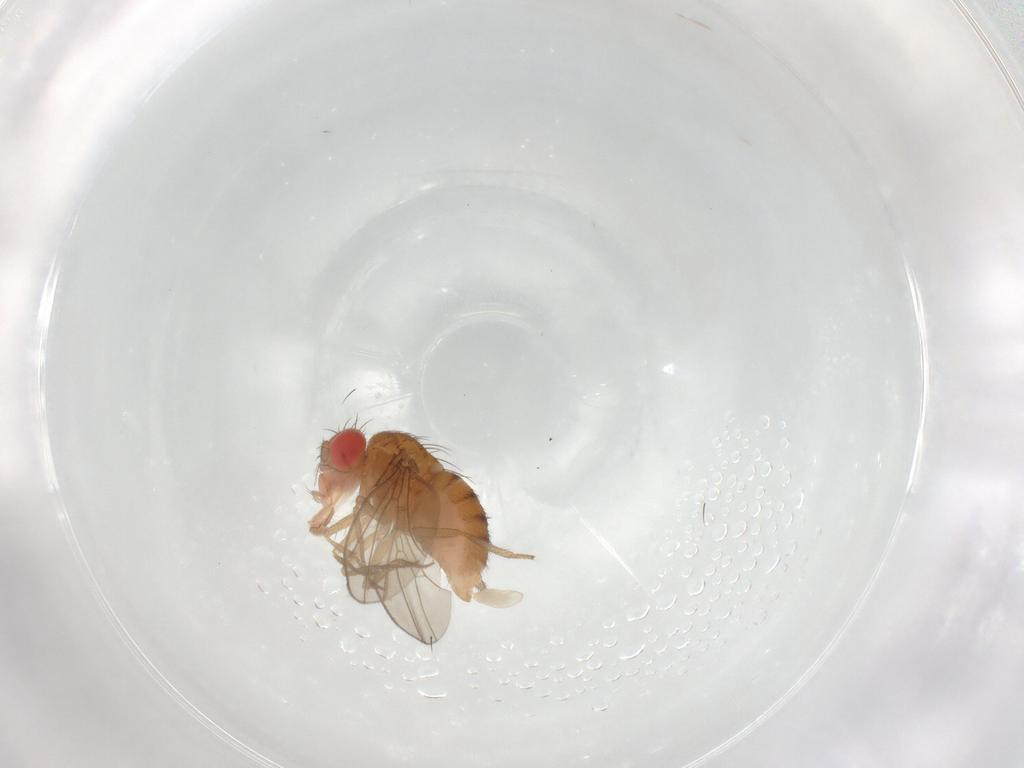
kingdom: Animalia
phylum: Arthropoda
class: Insecta
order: Diptera
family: Drosophilidae
